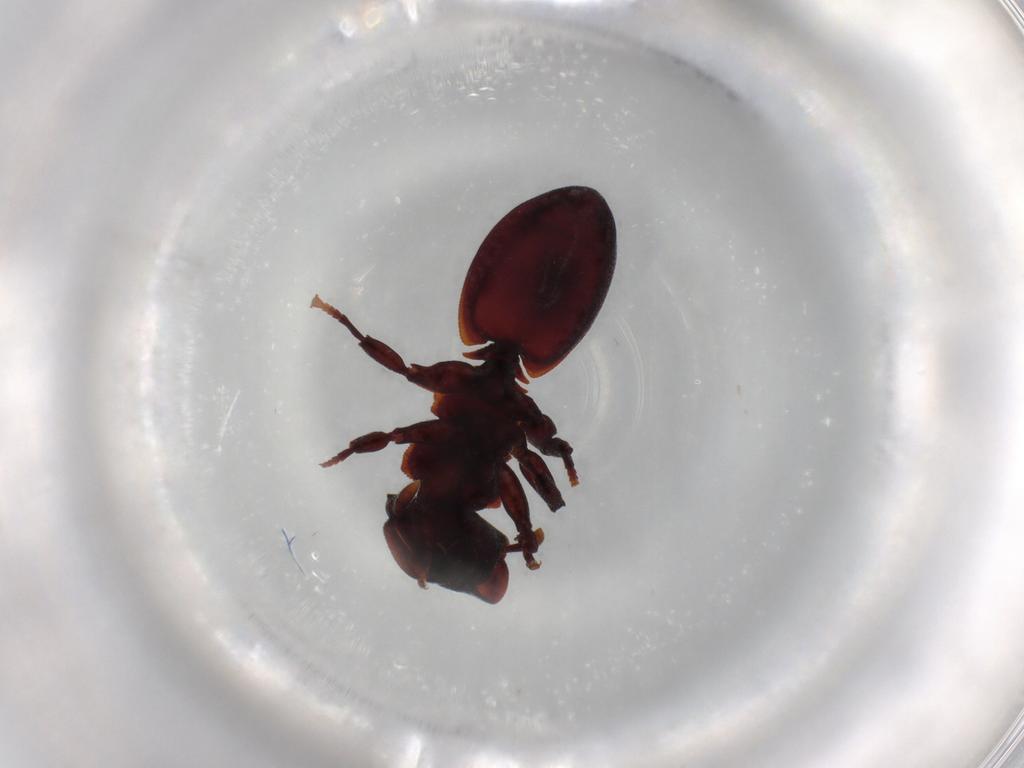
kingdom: Animalia
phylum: Arthropoda
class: Insecta
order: Hymenoptera
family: Formicidae
